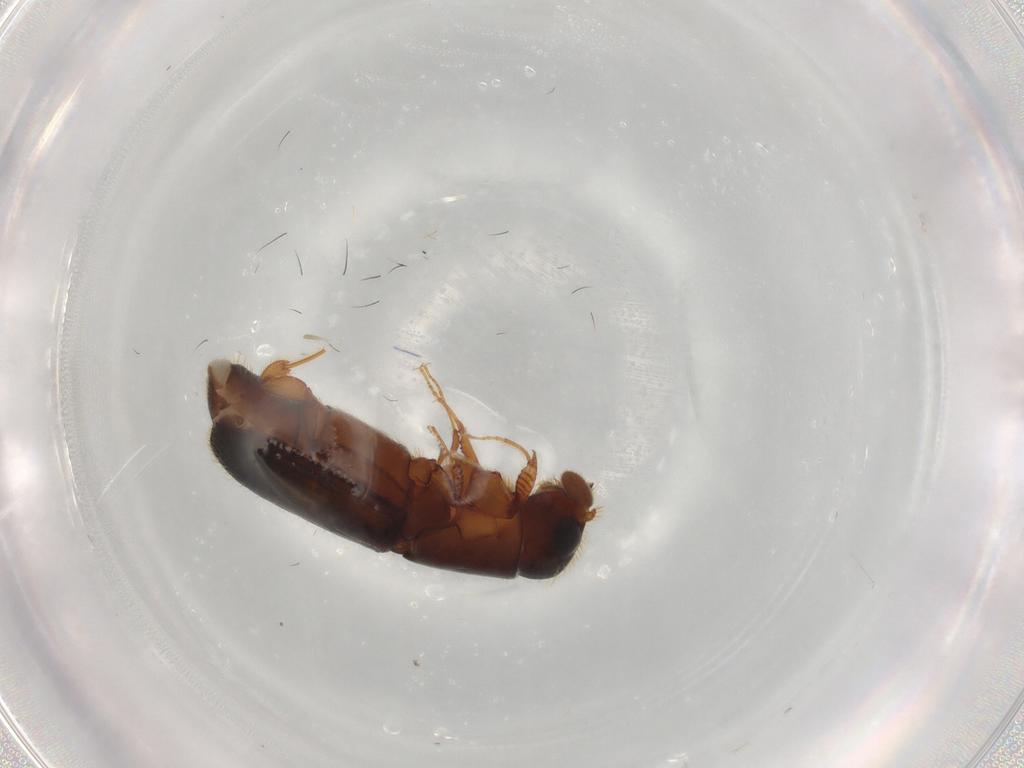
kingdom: Animalia
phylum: Arthropoda
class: Insecta
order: Coleoptera
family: Curculionidae
